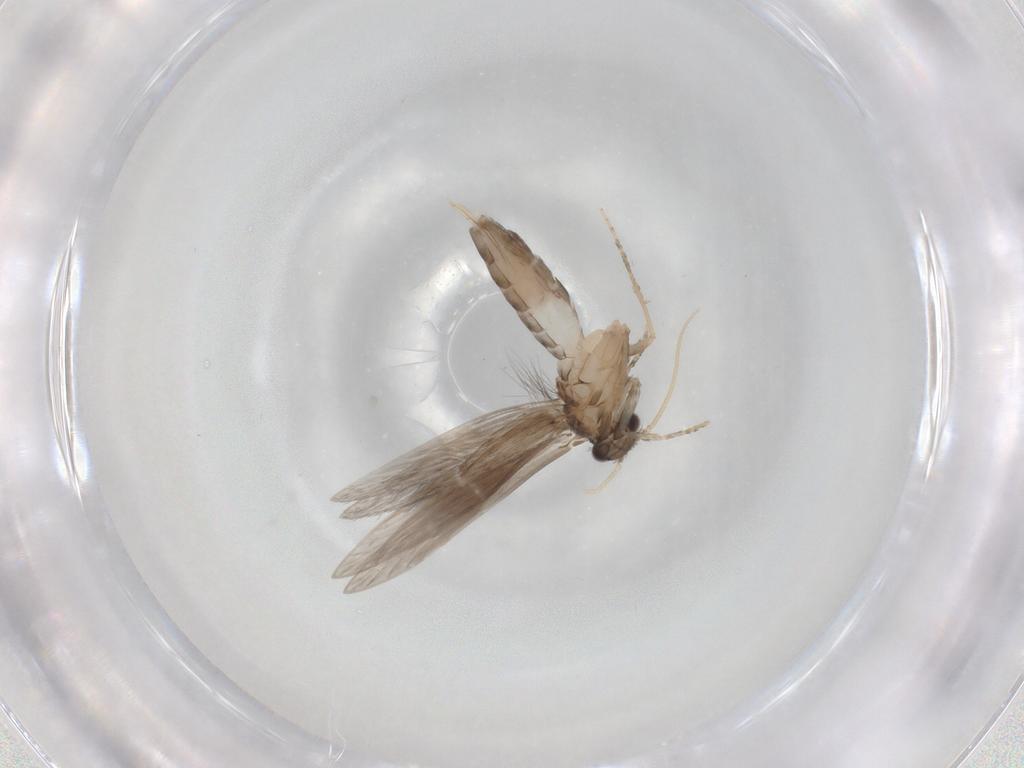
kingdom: Animalia
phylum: Arthropoda
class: Insecta
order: Trichoptera
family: Hydroptilidae
